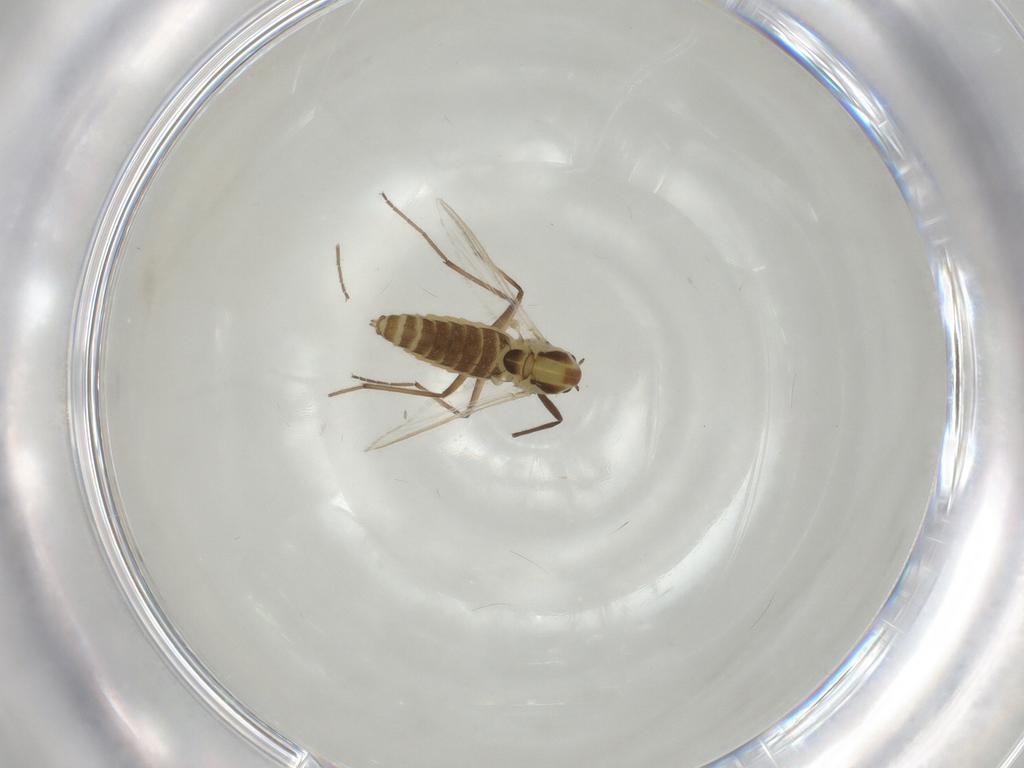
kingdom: Animalia
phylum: Arthropoda
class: Insecta
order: Diptera
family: Chironomidae
